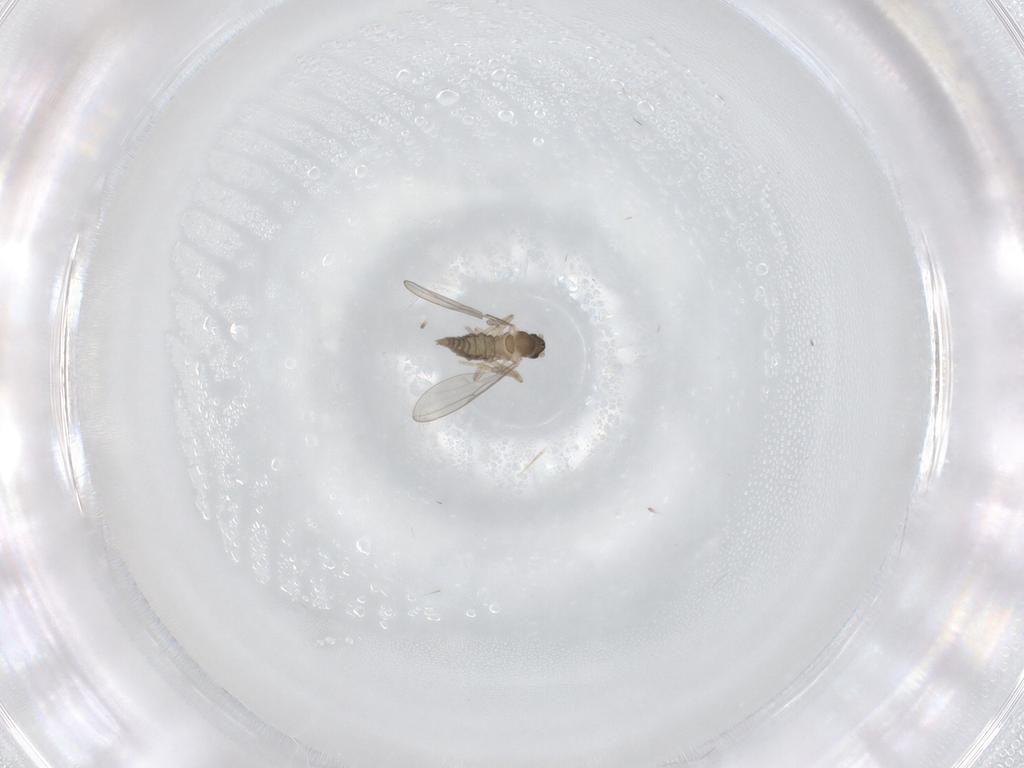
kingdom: Animalia
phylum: Arthropoda
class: Insecta
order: Diptera
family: Cecidomyiidae
